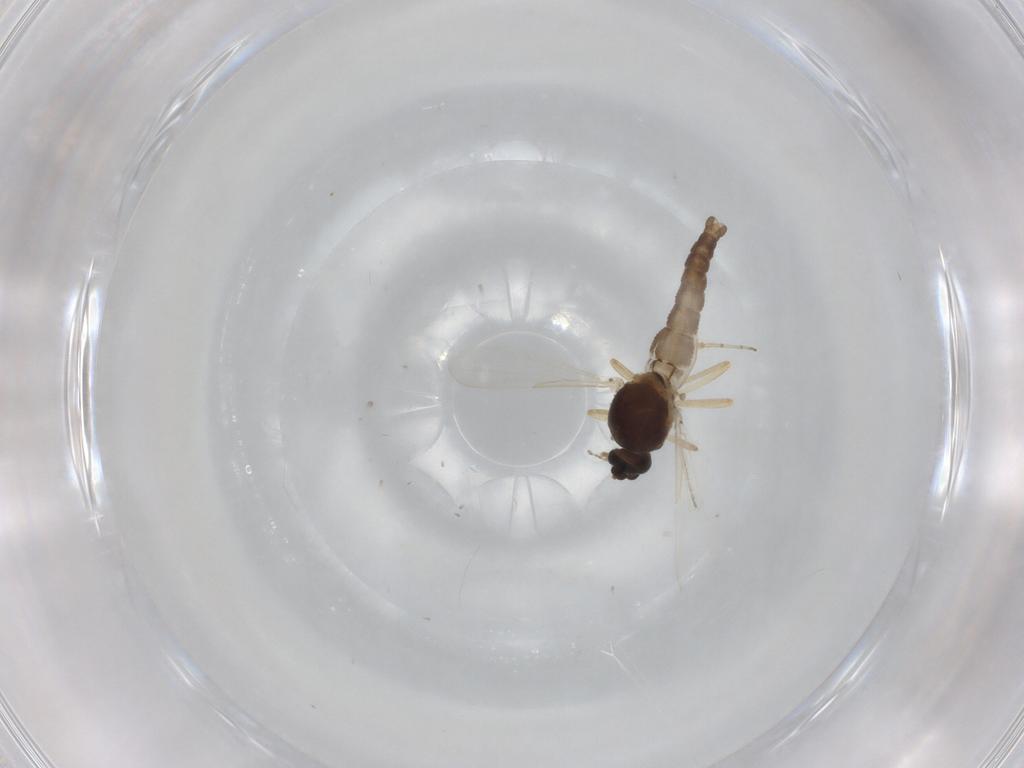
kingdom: Animalia
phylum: Arthropoda
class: Insecta
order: Diptera
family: Ceratopogonidae
